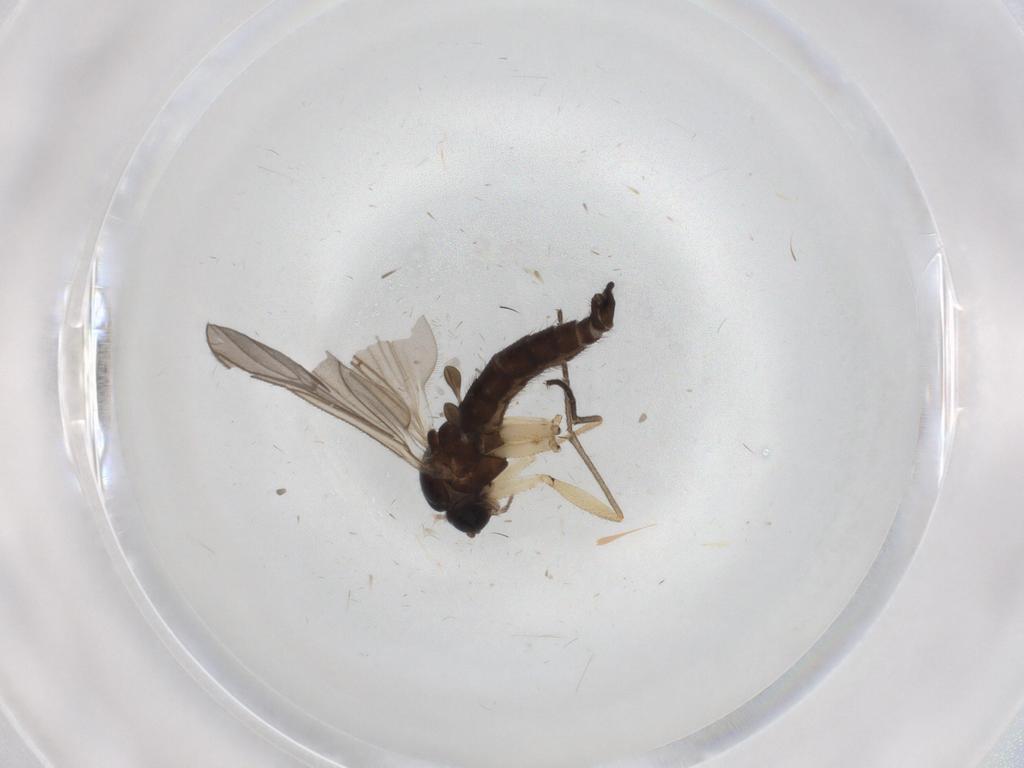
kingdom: Animalia
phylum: Arthropoda
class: Insecta
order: Diptera
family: Sciaridae
